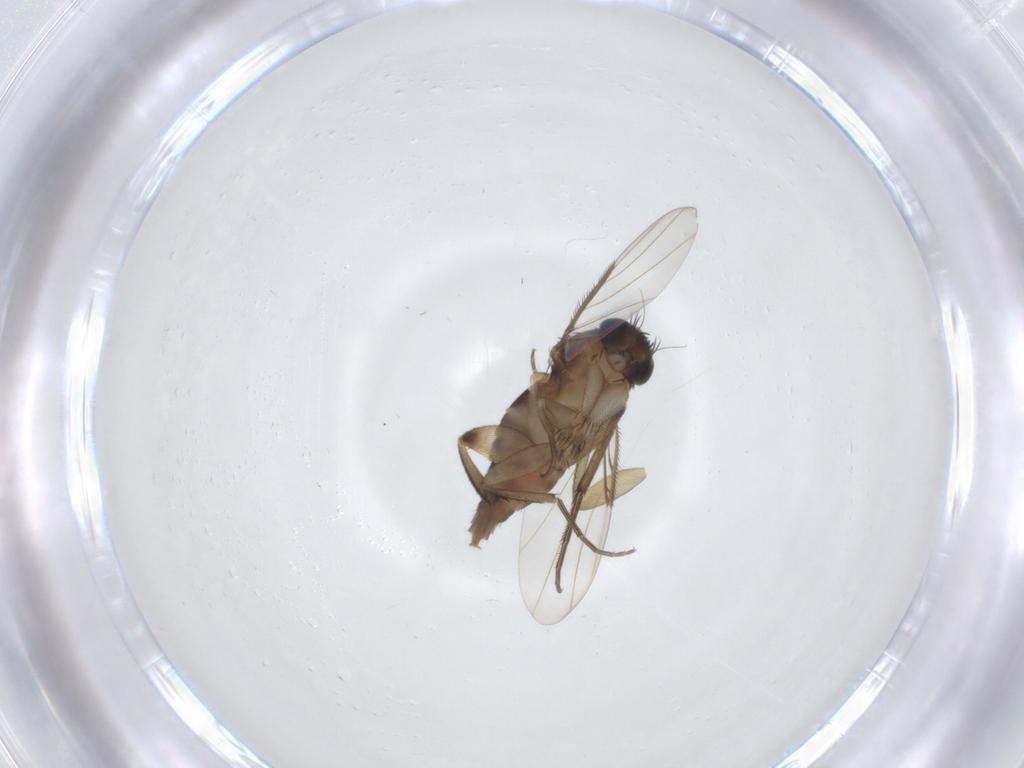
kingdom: Animalia
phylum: Arthropoda
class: Insecta
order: Diptera
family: Phoridae
